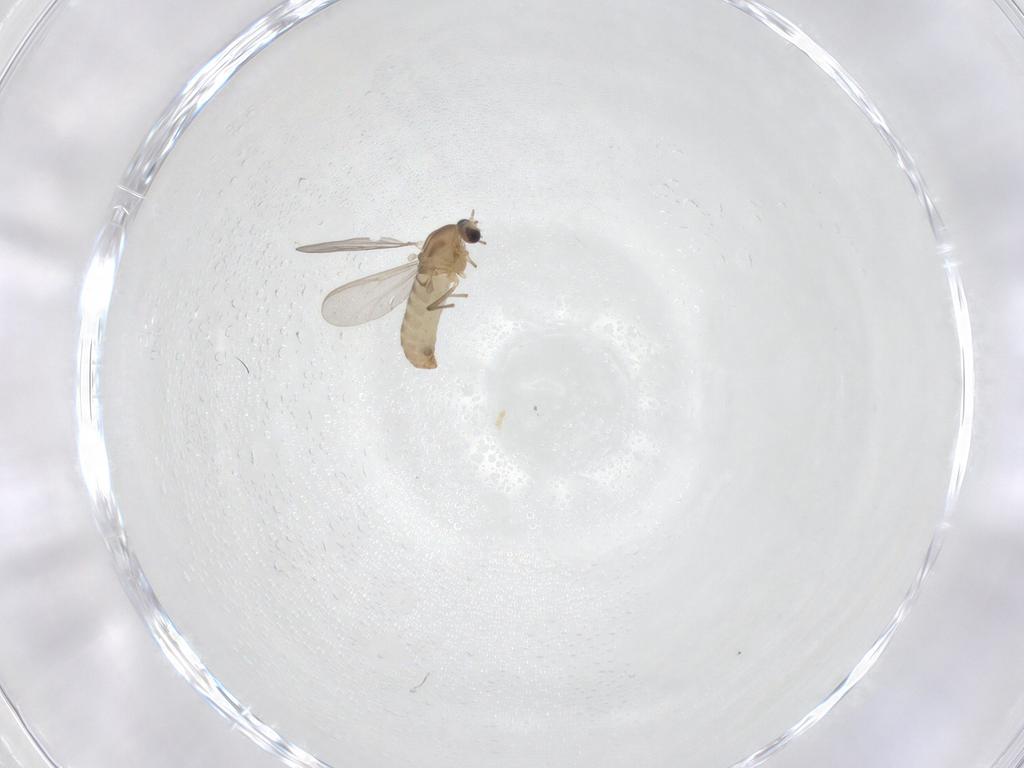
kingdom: Animalia
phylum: Arthropoda
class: Insecta
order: Diptera
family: Chironomidae
